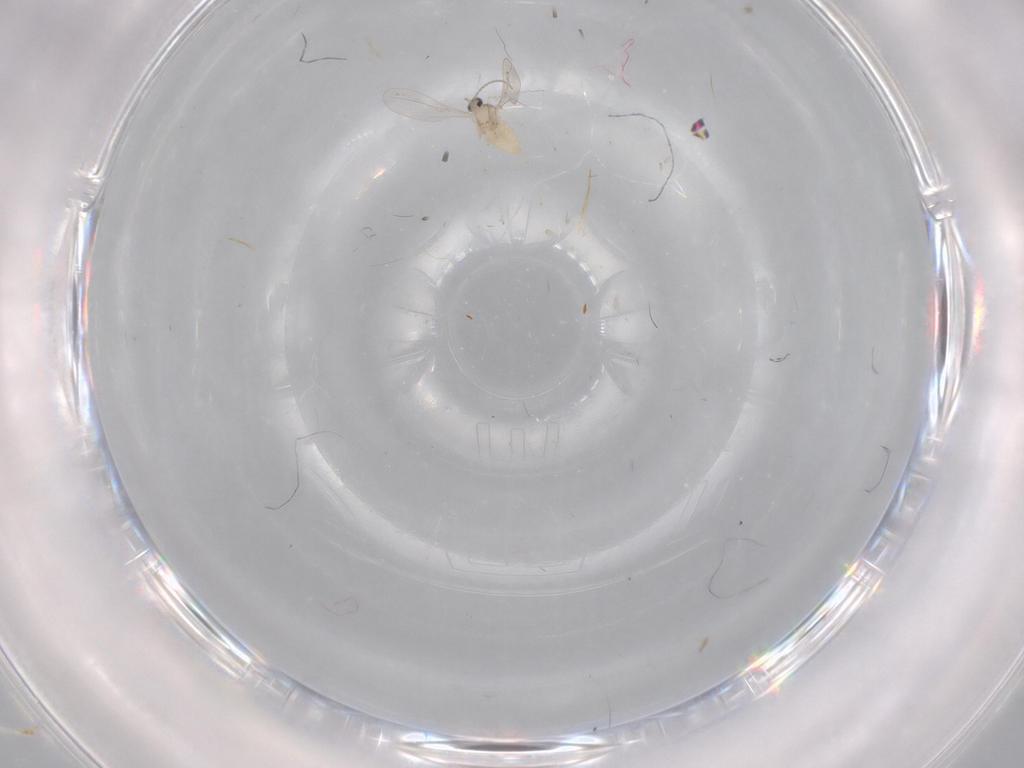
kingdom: Animalia
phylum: Arthropoda
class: Insecta
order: Diptera
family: Cecidomyiidae
